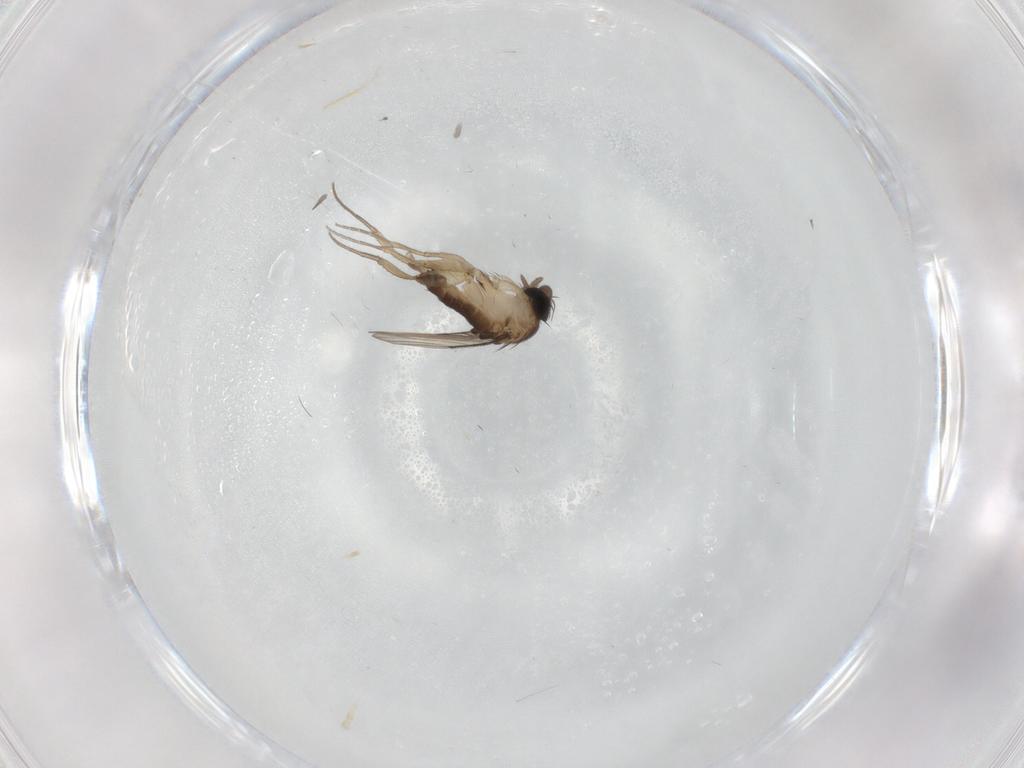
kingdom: Animalia
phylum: Arthropoda
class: Insecta
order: Diptera
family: Phoridae
